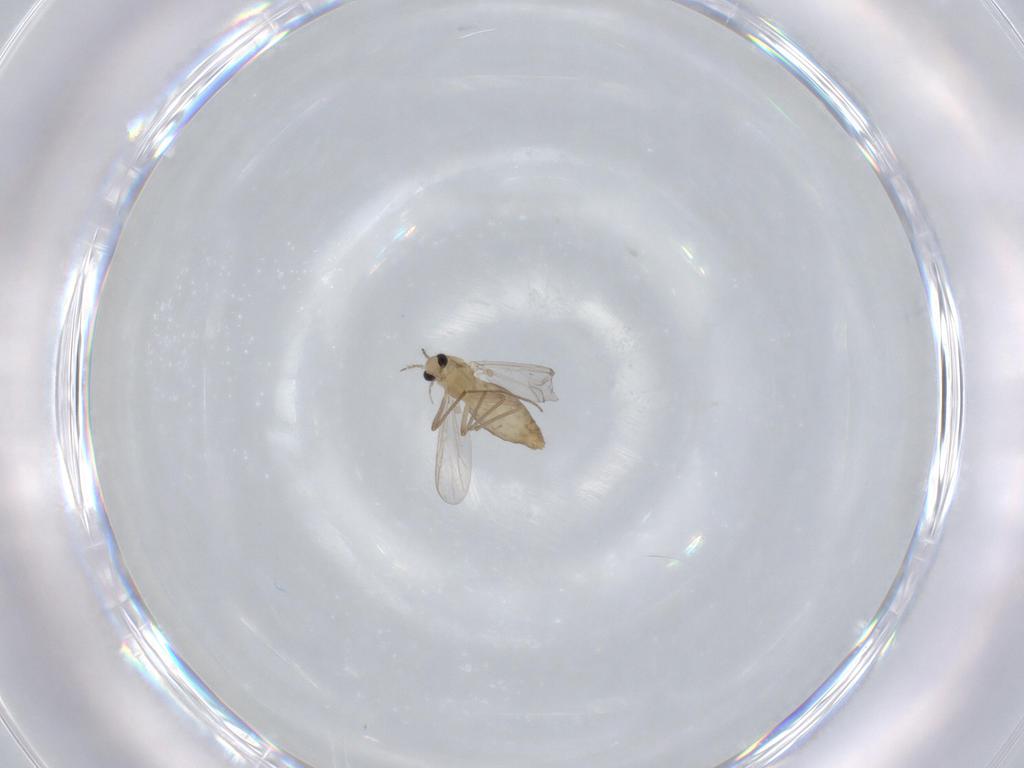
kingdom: Animalia
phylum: Arthropoda
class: Insecta
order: Diptera
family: Chironomidae
